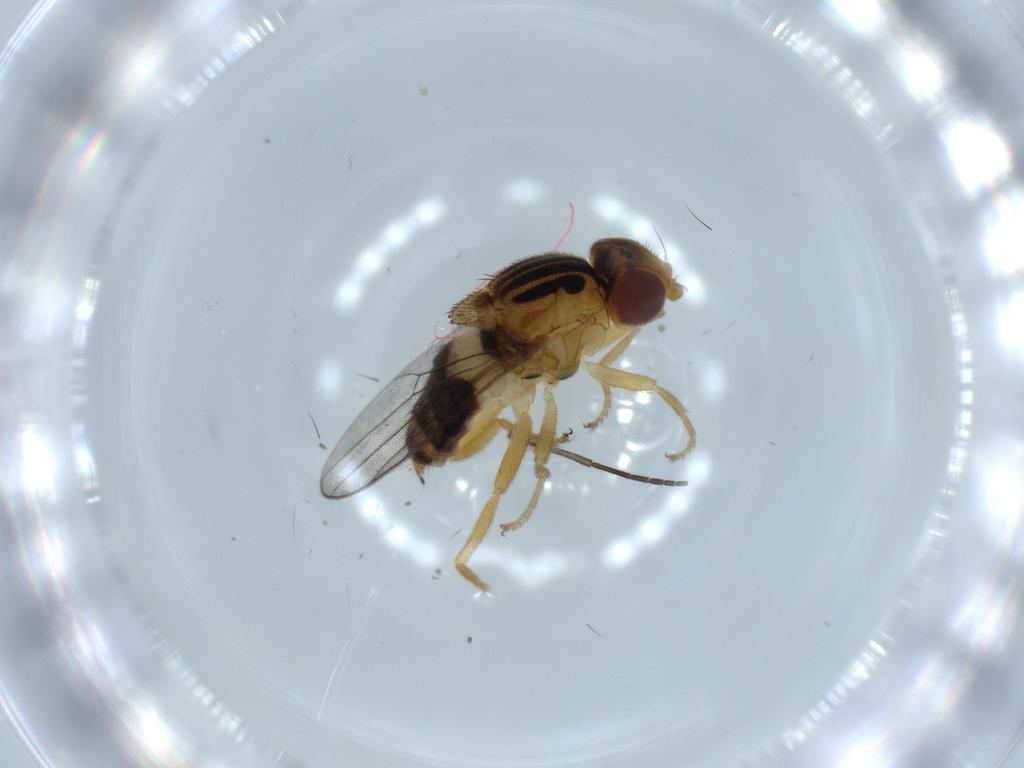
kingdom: Animalia
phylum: Arthropoda
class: Insecta
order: Diptera
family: Chloropidae
